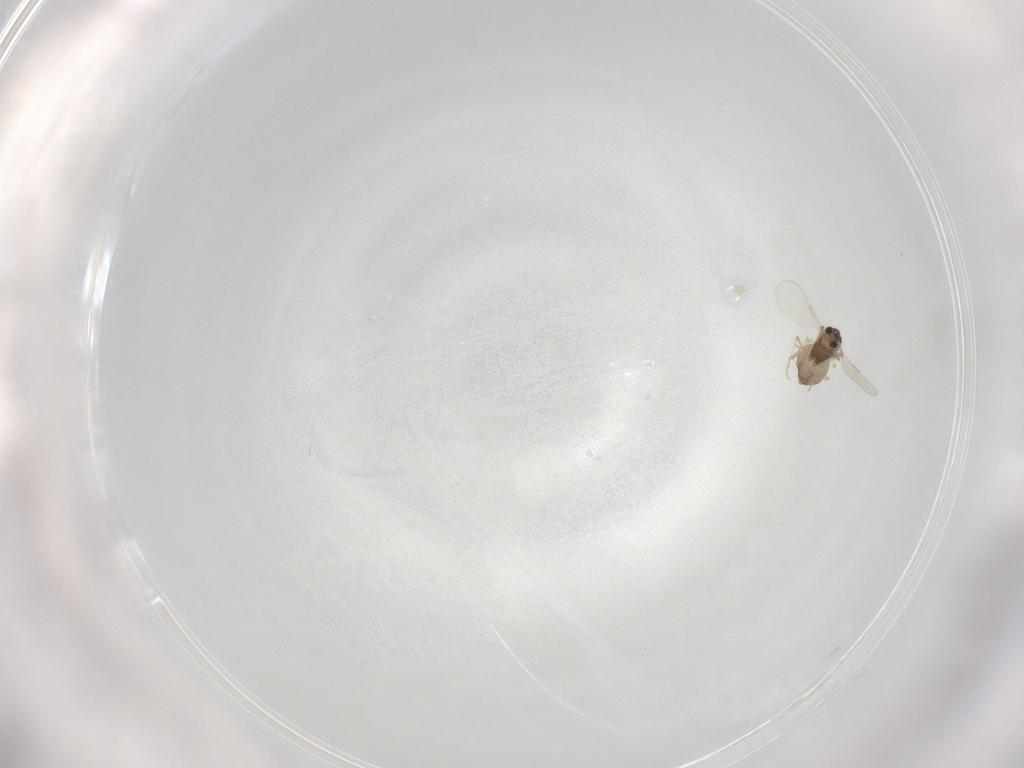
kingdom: Animalia
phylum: Arthropoda
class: Insecta
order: Diptera
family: Chironomidae
